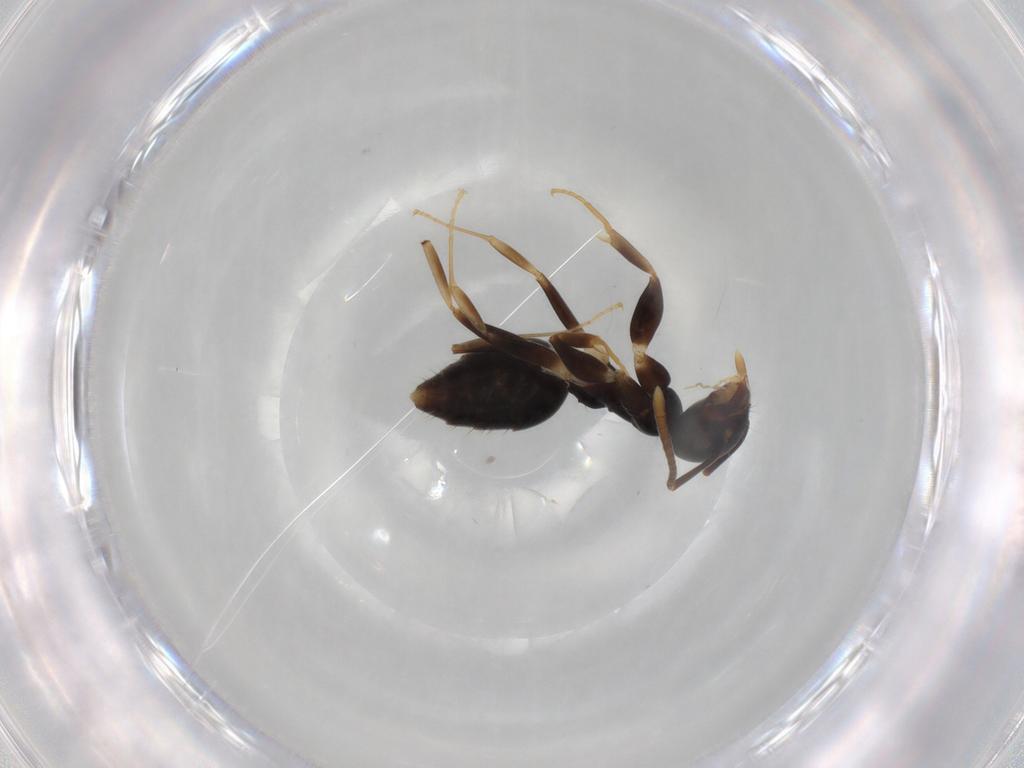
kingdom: Animalia
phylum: Arthropoda
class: Insecta
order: Hymenoptera
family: Formicidae
